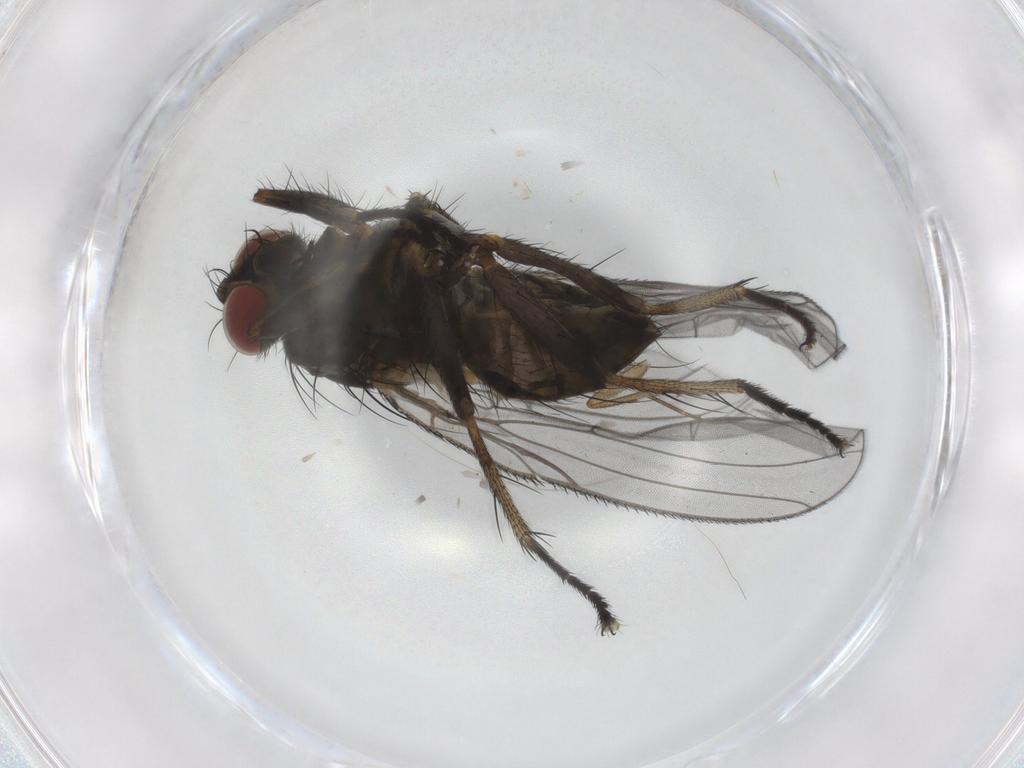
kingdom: Animalia
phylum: Arthropoda
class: Insecta
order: Diptera
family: Muscidae
